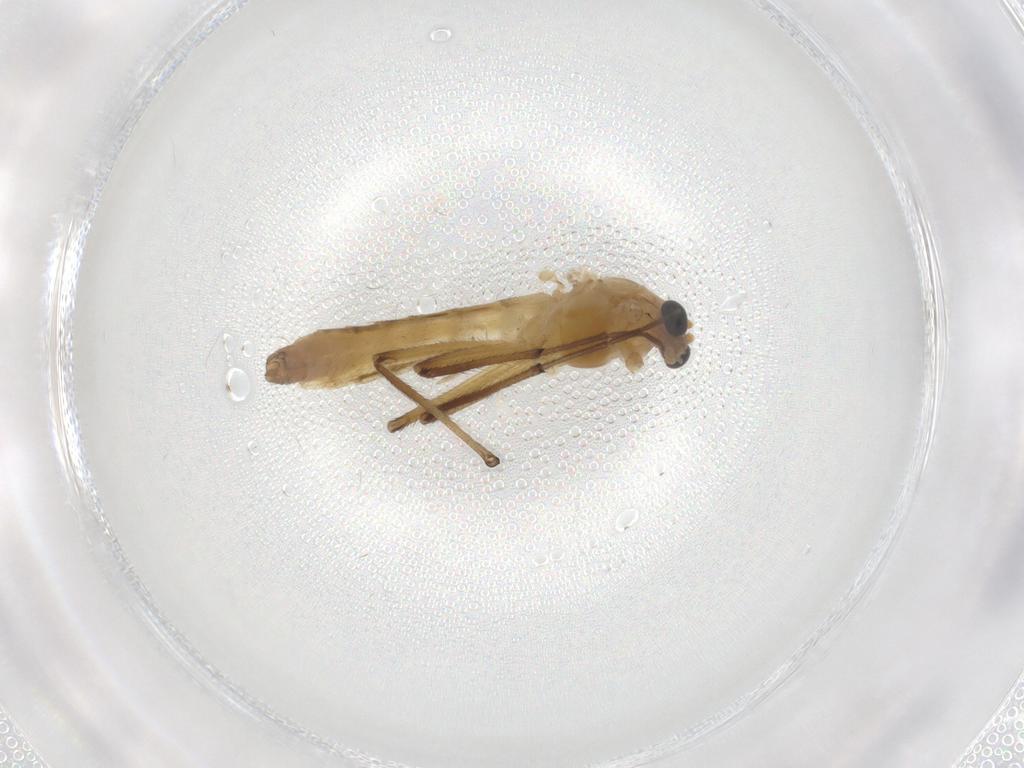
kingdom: Animalia
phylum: Arthropoda
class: Insecta
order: Diptera
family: Chironomidae
